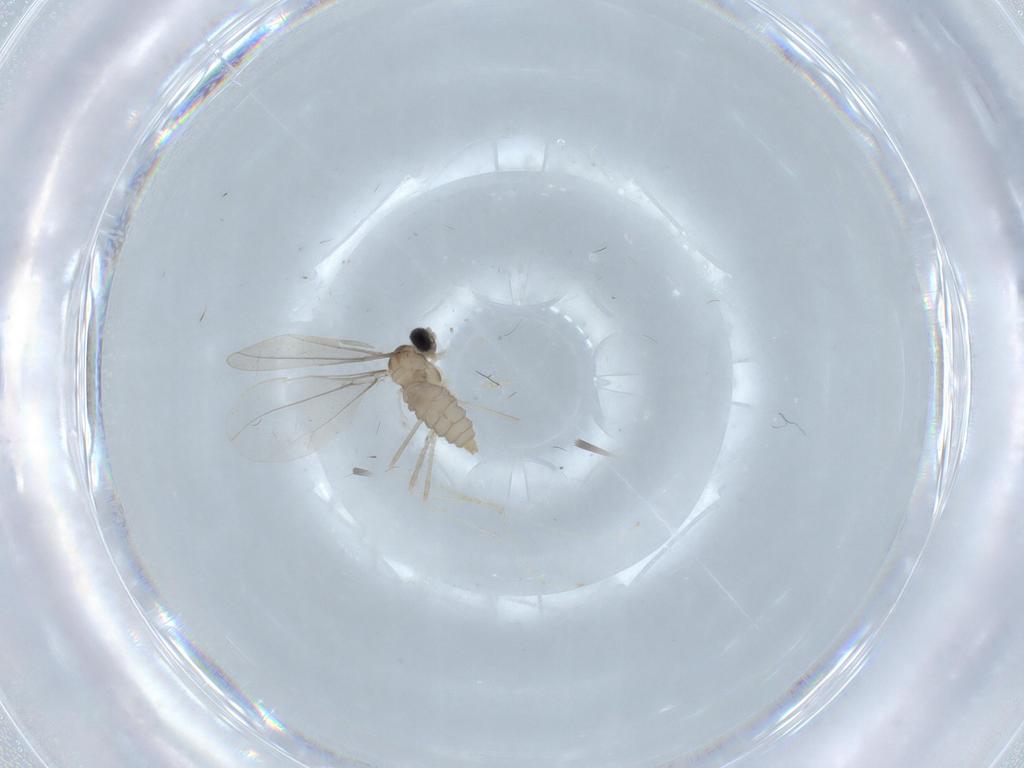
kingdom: Animalia
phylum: Arthropoda
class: Insecta
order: Diptera
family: Cecidomyiidae
